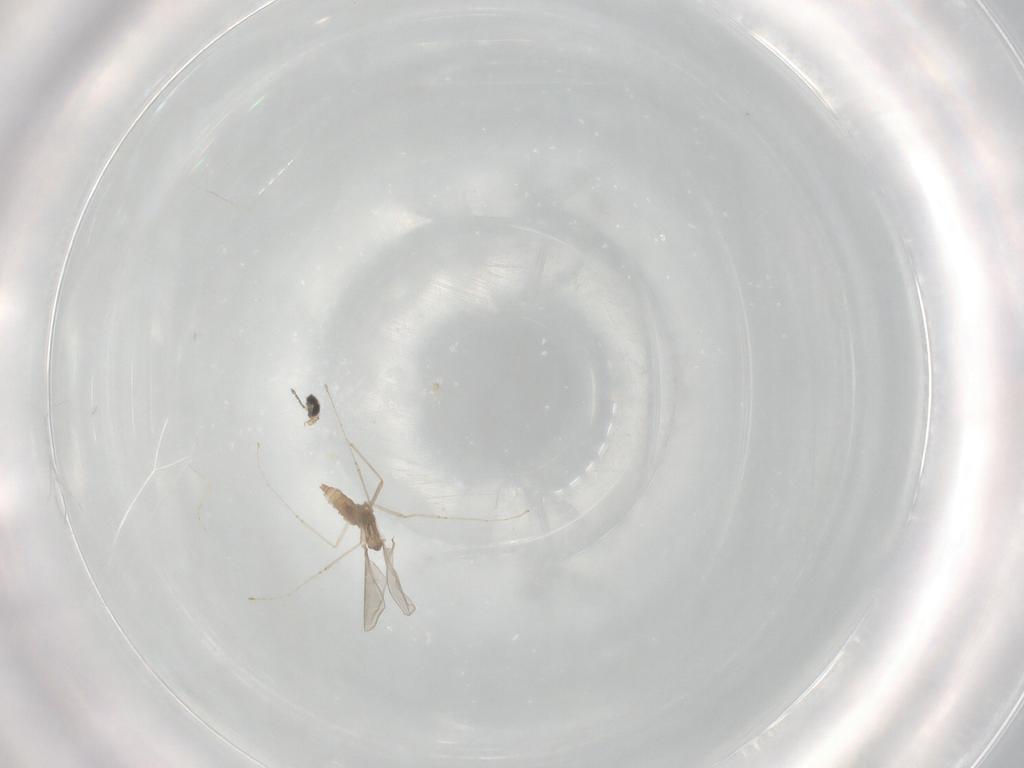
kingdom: Animalia
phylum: Arthropoda
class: Insecta
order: Diptera
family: Cecidomyiidae
